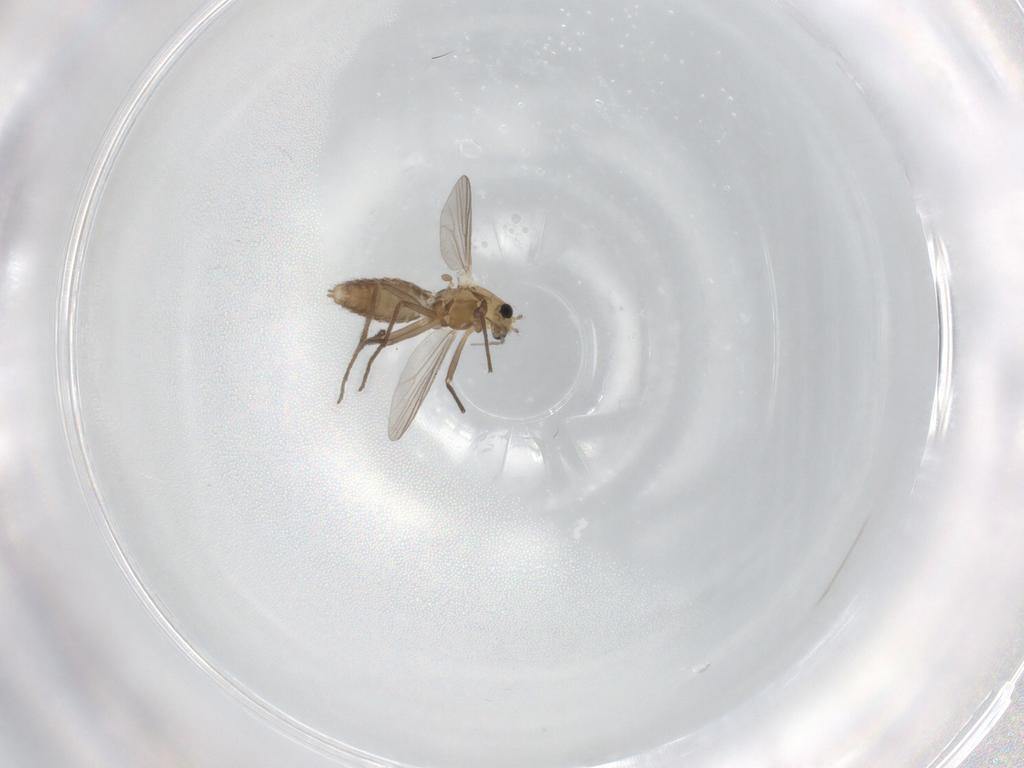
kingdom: Animalia
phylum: Arthropoda
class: Insecta
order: Diptera
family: Chironomidae
